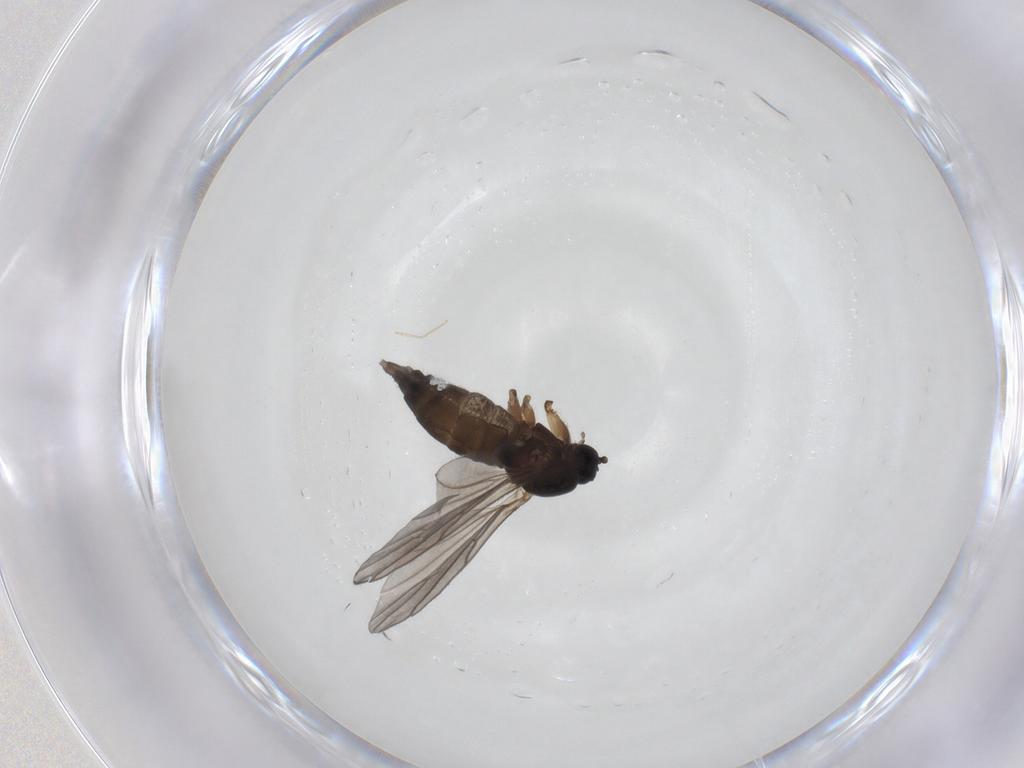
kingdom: Animalia
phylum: Arthropoda
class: Insecta
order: Diptera
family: Sciaridae
